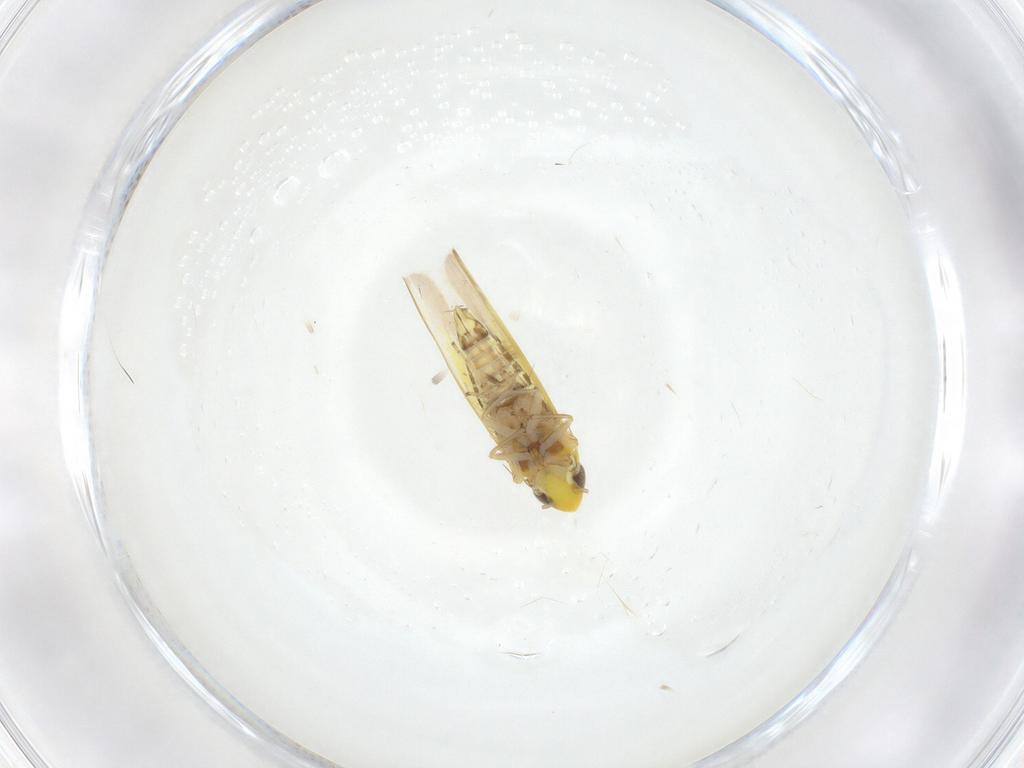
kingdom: Animalia
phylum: Arthropoda
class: Insecta
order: Hemiptera
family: Cicadellidae
